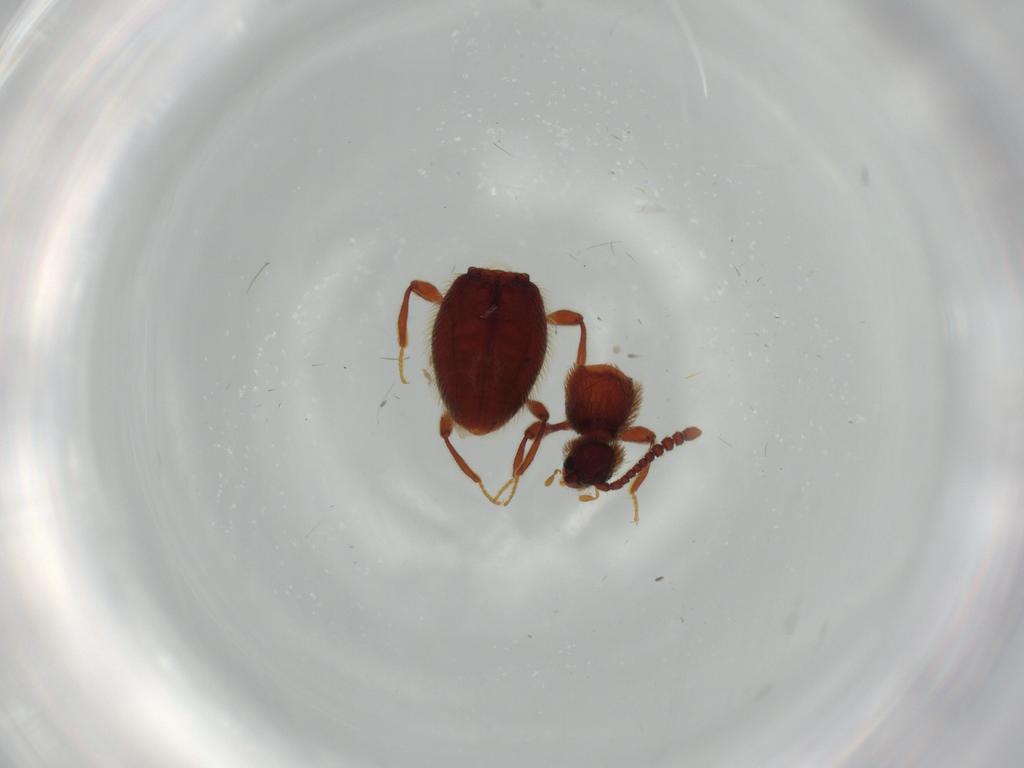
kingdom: Animalia
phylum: Arthropoda
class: Insecta
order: Coleoptera
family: Staphylinidae
